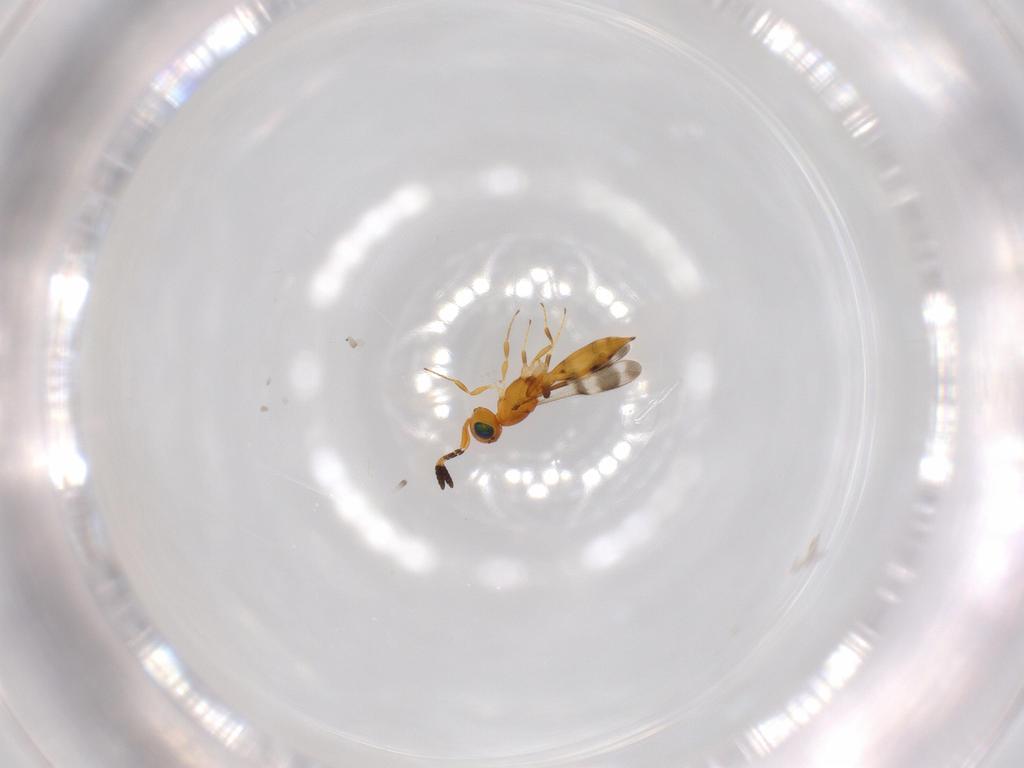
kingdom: Animalia
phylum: Arthropoda
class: Insecta
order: Hymenoptera
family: Scelionidae
